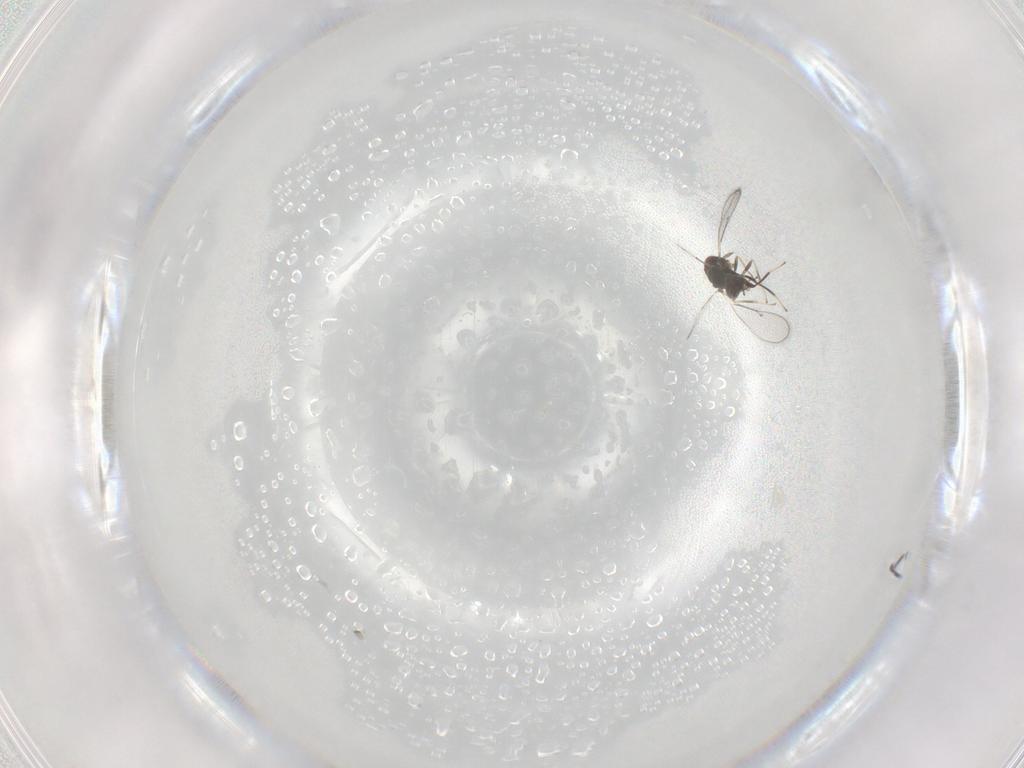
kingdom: Animalia
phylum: Arthropoda
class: Insecta
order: Hymenoptera
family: Eulophidae
